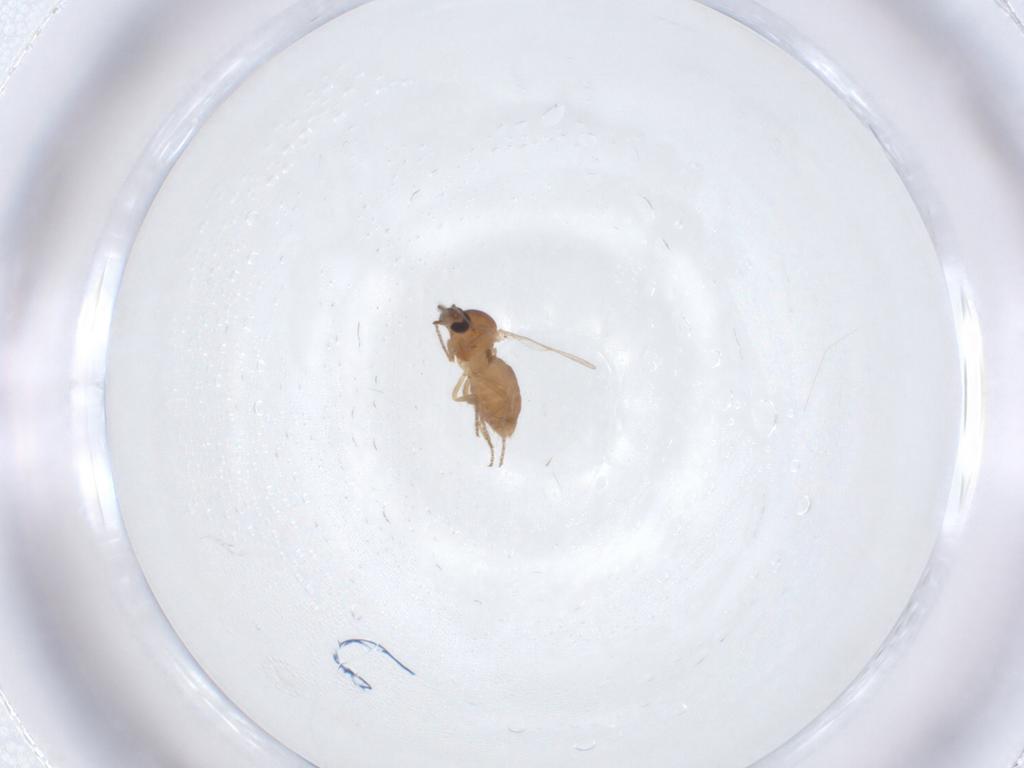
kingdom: Animalia
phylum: Arthropoda
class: Insecta
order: Diptera
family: Ceratopogonidae
